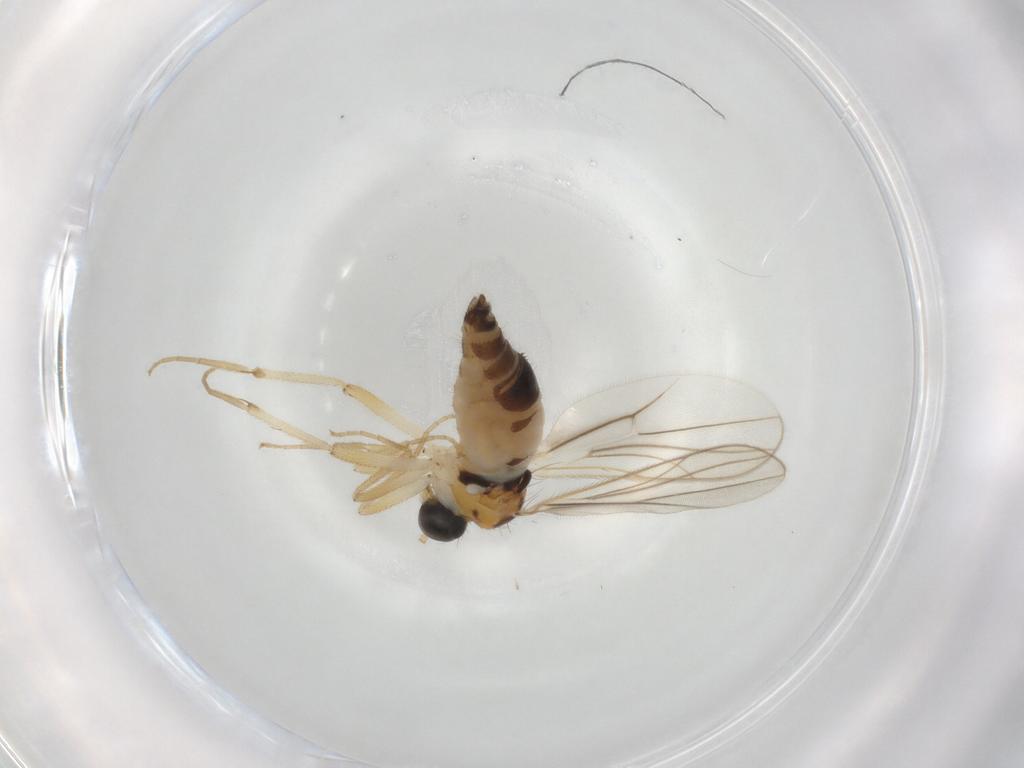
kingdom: Animalia
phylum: Arthropoda
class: Insecta
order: Diptera
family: Hybotidae
